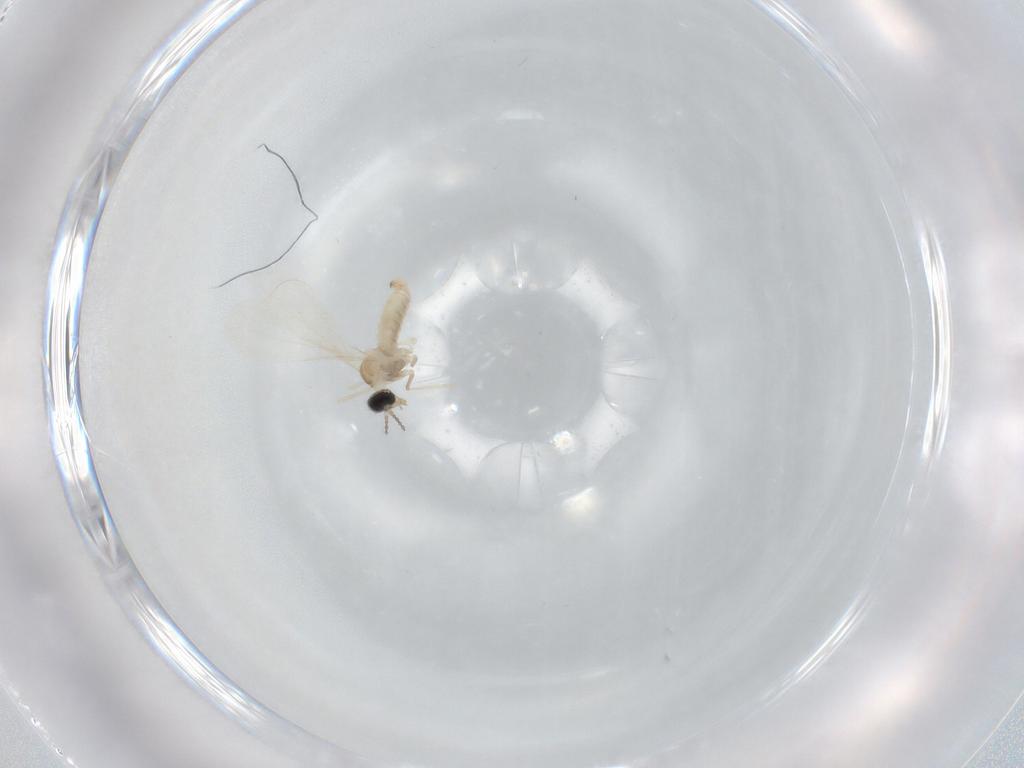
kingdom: Animalia
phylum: Arthropoda
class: Insecta
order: Diptera
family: Cecidomyiidae
